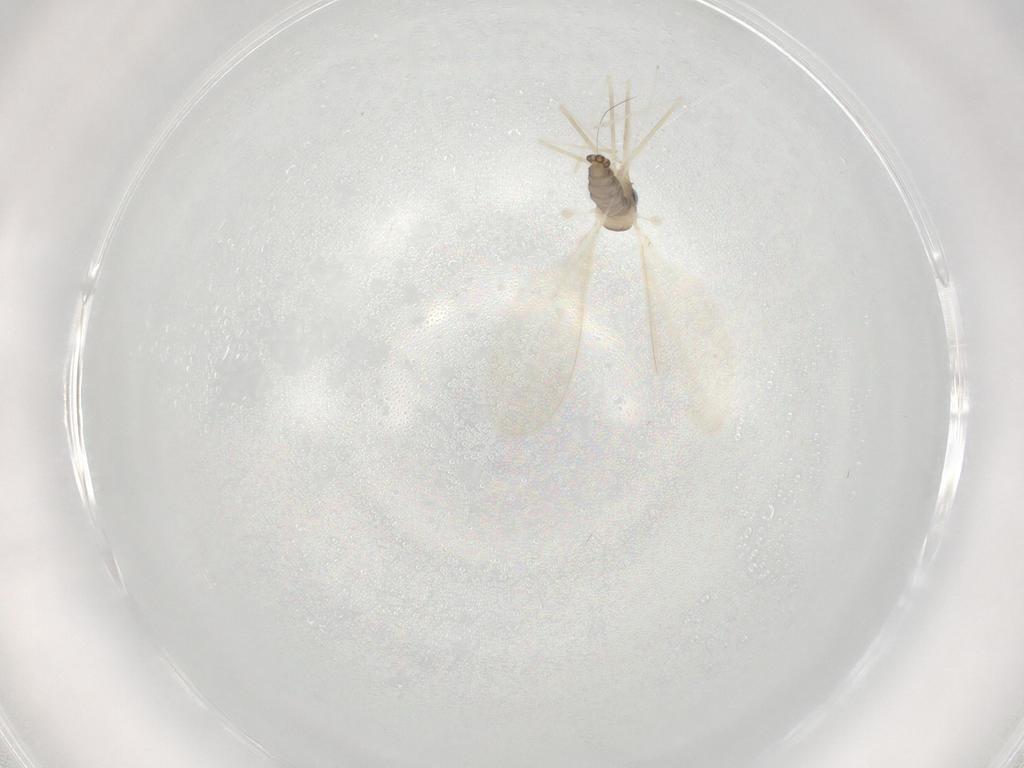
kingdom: Animalia
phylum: Arthropoda
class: Insecta
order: Diptera
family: Cecidomyiidae
